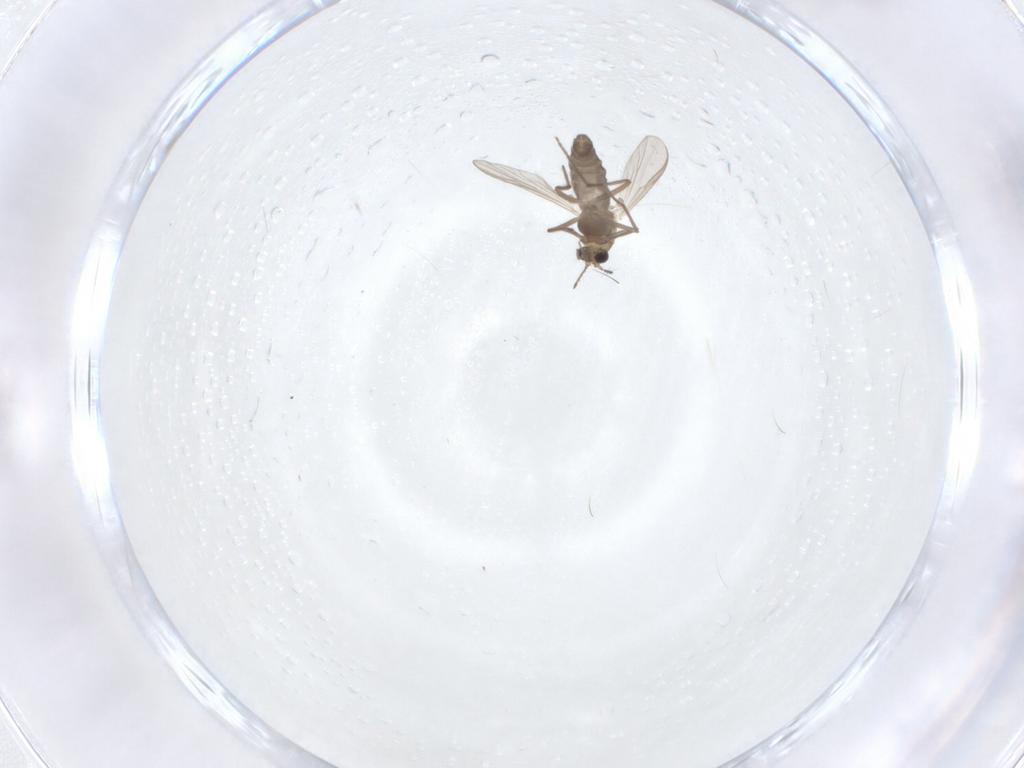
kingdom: Animalia
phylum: Arthropoda
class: Insecta
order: Diptera
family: Chironomidae
